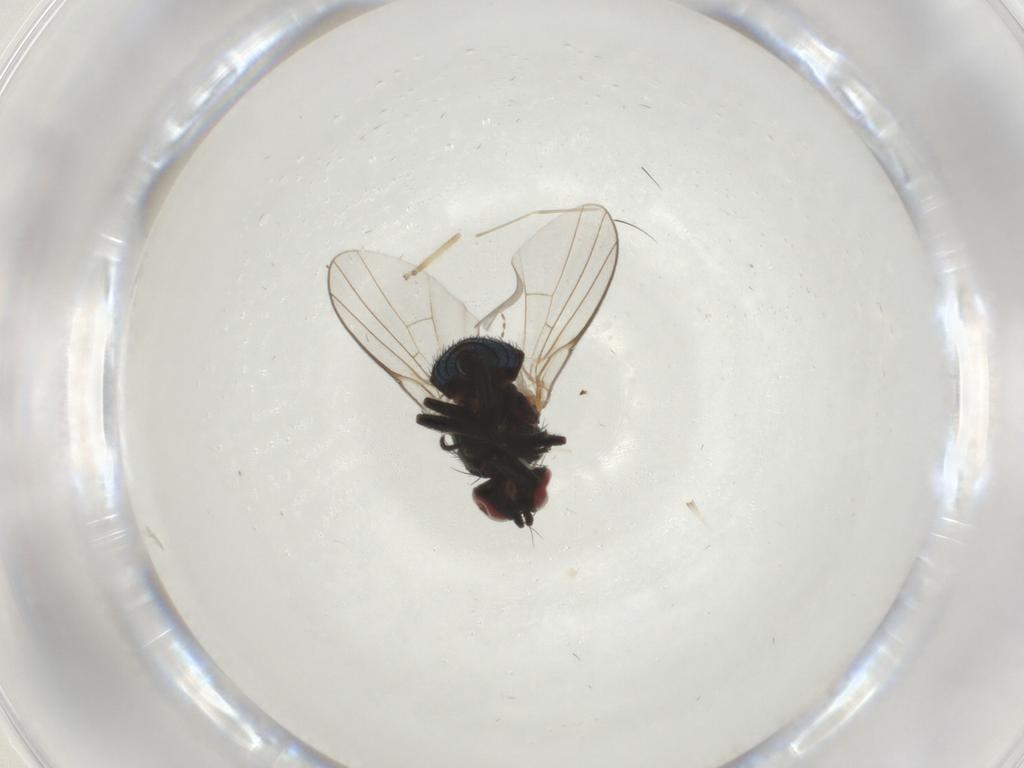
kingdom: Animalia
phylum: Arthropoda
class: Insecta
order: Diptera
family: Agromyzidae
